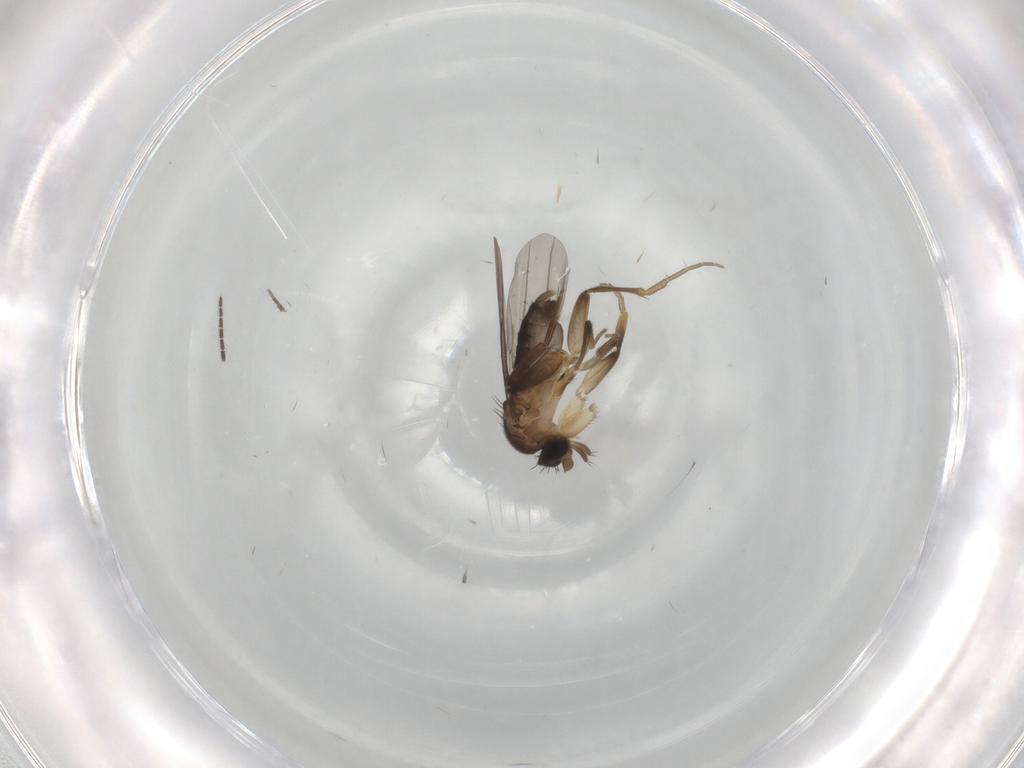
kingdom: Animalia
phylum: Arthropoda
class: Insecta
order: Diptera
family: Phoridae
